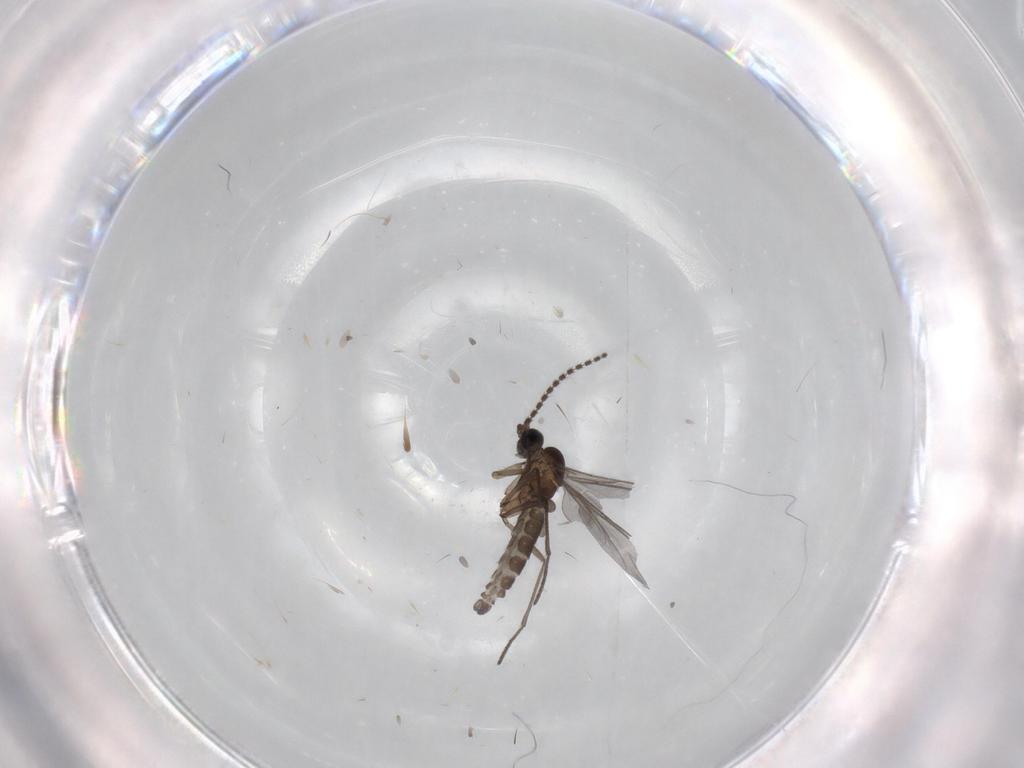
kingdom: Animalia
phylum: Arthropoda
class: Insecta
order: Diptera
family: Sciaridae
